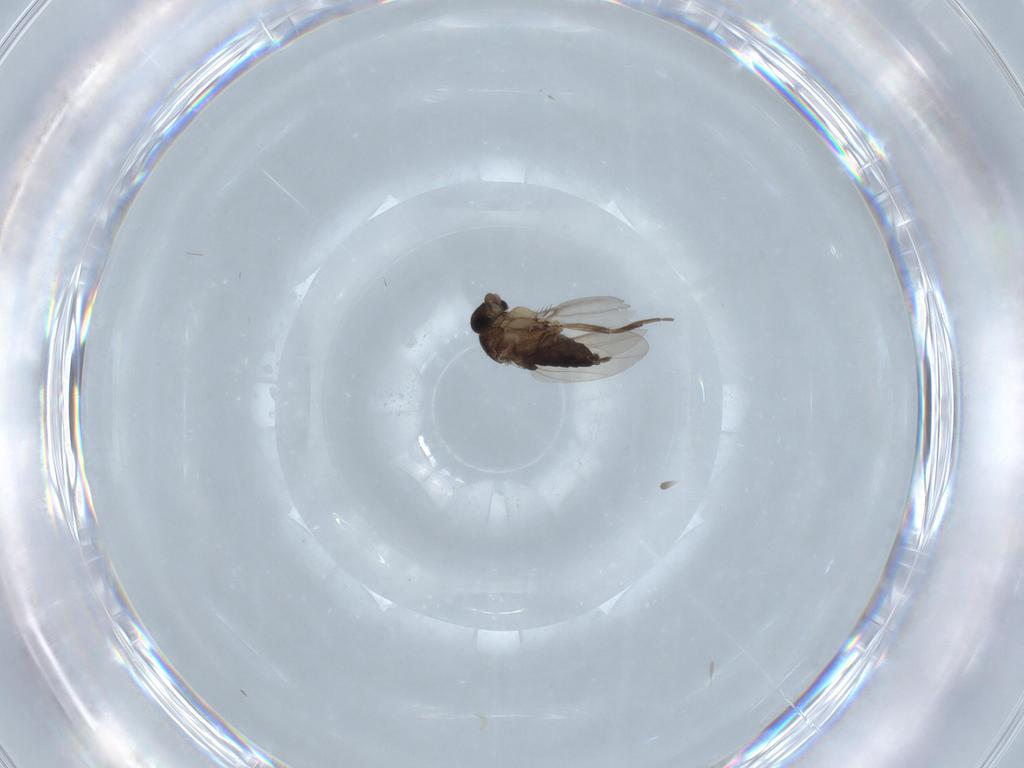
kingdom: Animalia
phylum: Arthropoda
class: Insecta
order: Diptera
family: Phoridae
